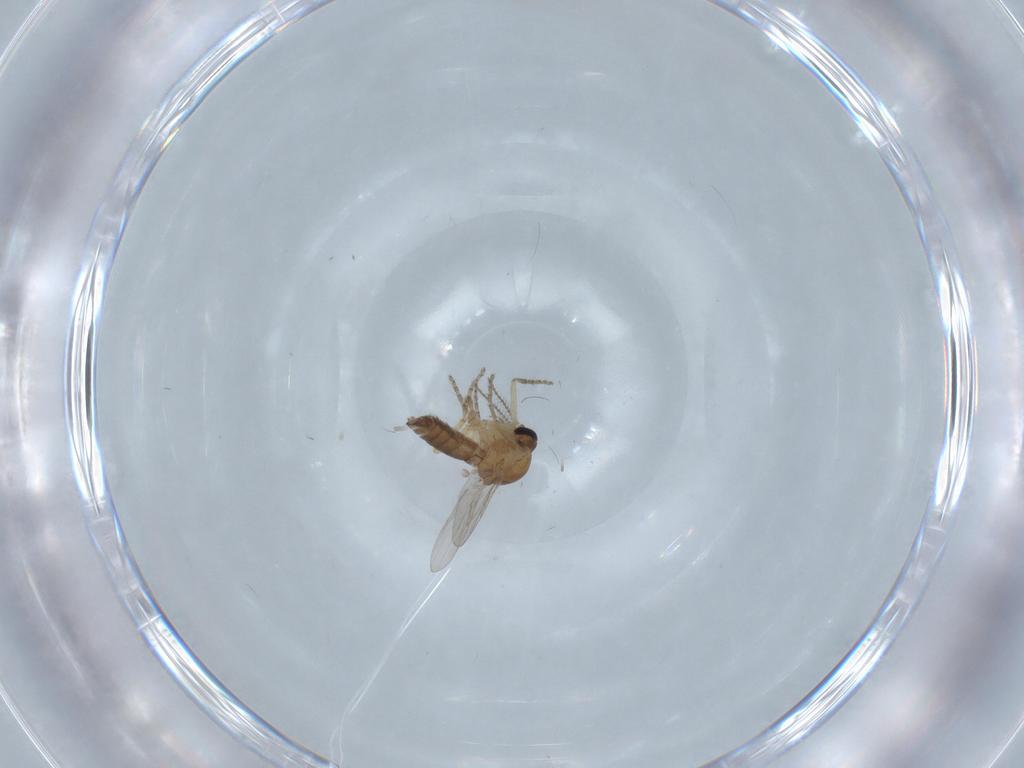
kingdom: Animalia
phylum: Arthropoda
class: Insecta
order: Diptera
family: Ceratopogonidae
